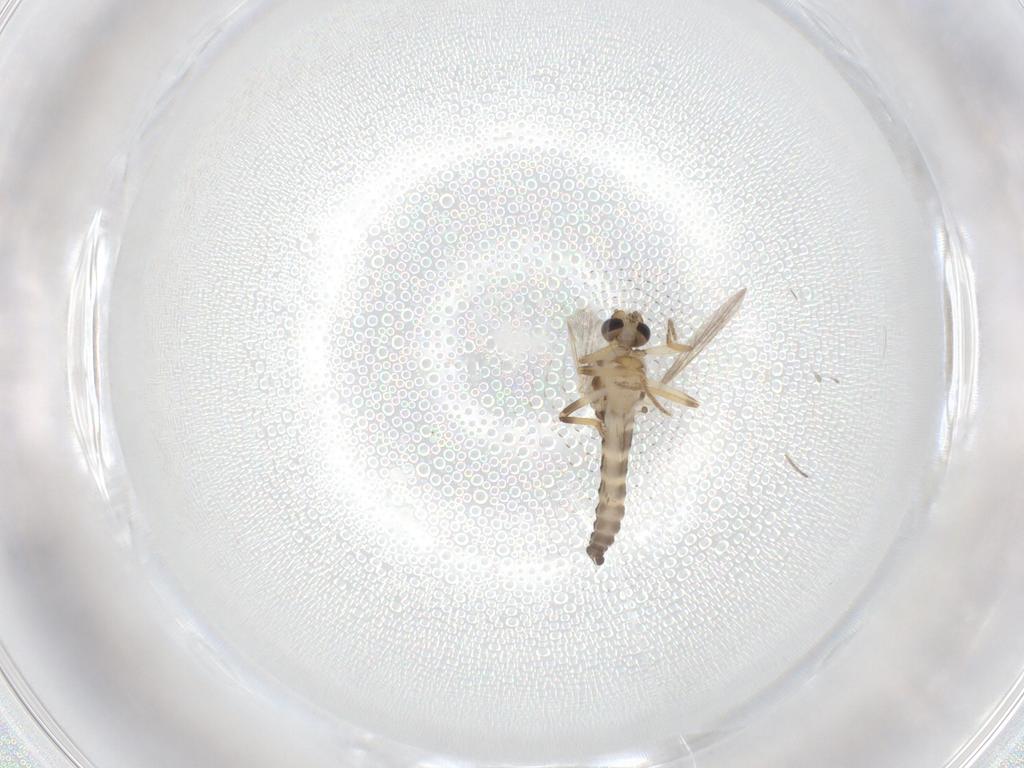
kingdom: Animalia
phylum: Arthropoda
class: Insecta
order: Diptera
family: Ceratopogonidae
